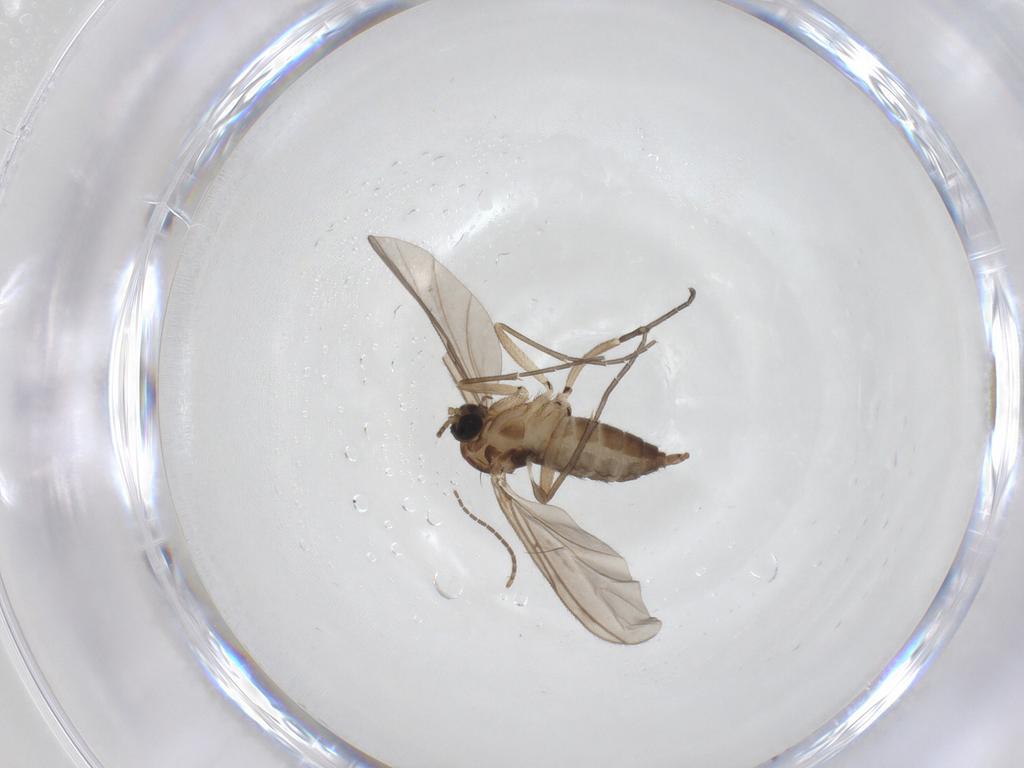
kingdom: Animalia
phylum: Arthropoda
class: Insecta
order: Diptera
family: Sciaridae
